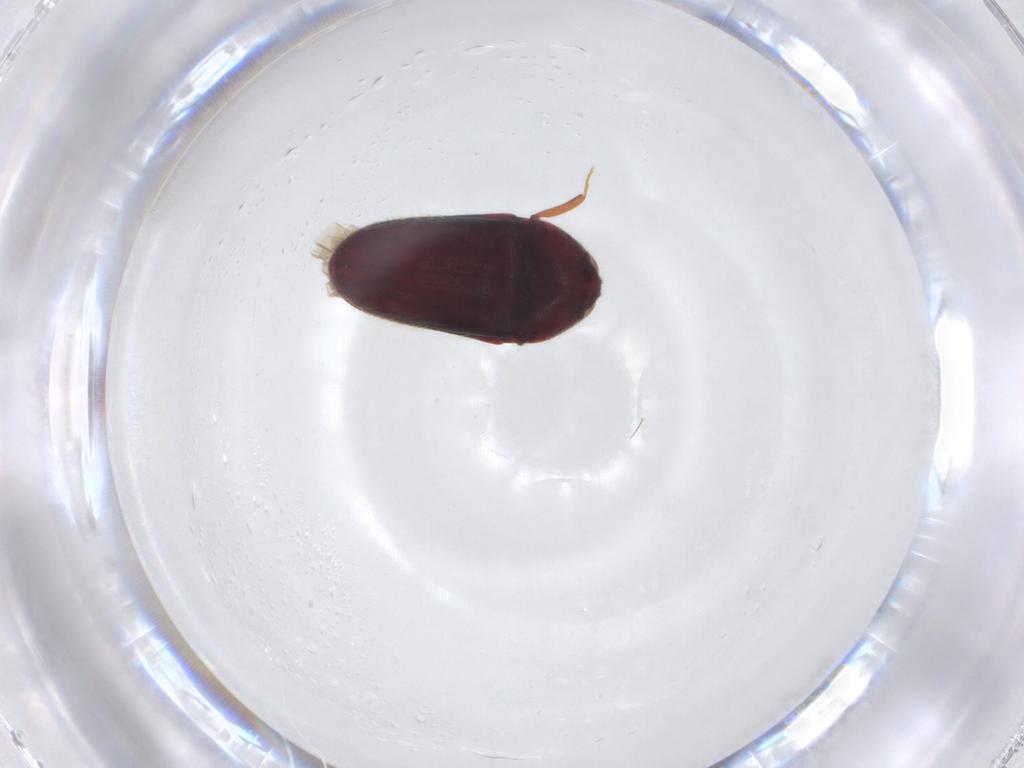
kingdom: Animalia
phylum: Arthropoda
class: Insecta
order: Coleoptera
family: Throscidae
